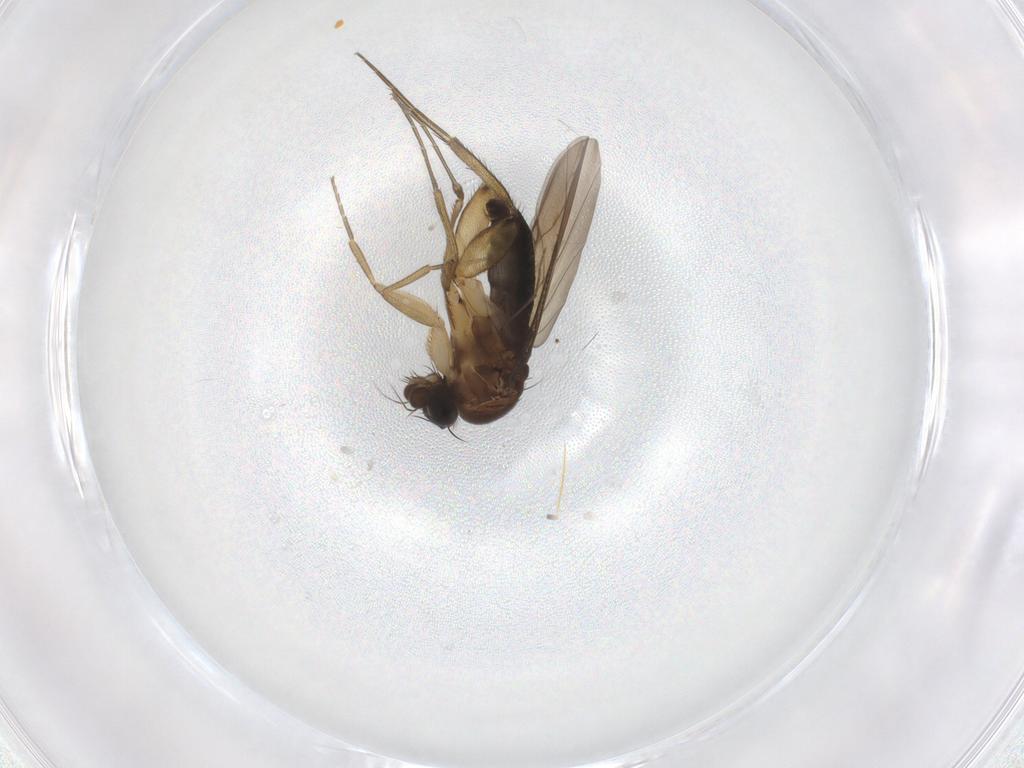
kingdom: Animalia
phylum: Arthropoda
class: Insecta
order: Diptera
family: Phoridae
